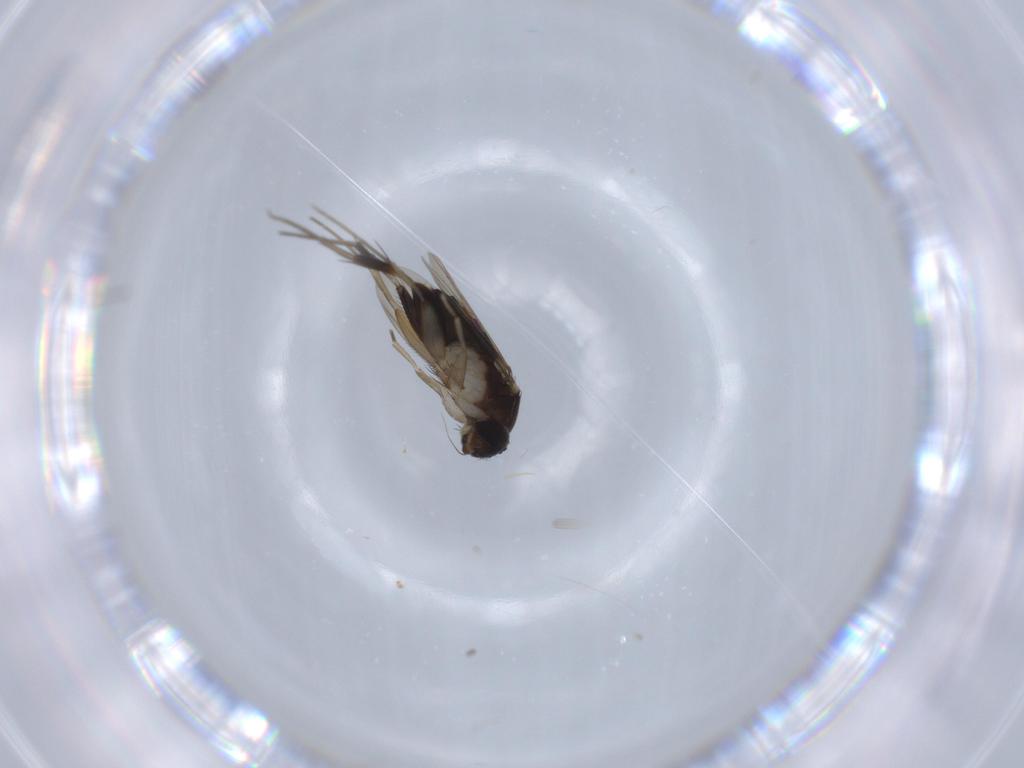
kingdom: Animalia
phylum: Arthropoda
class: Insecta
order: Diptera
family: Phoridae
